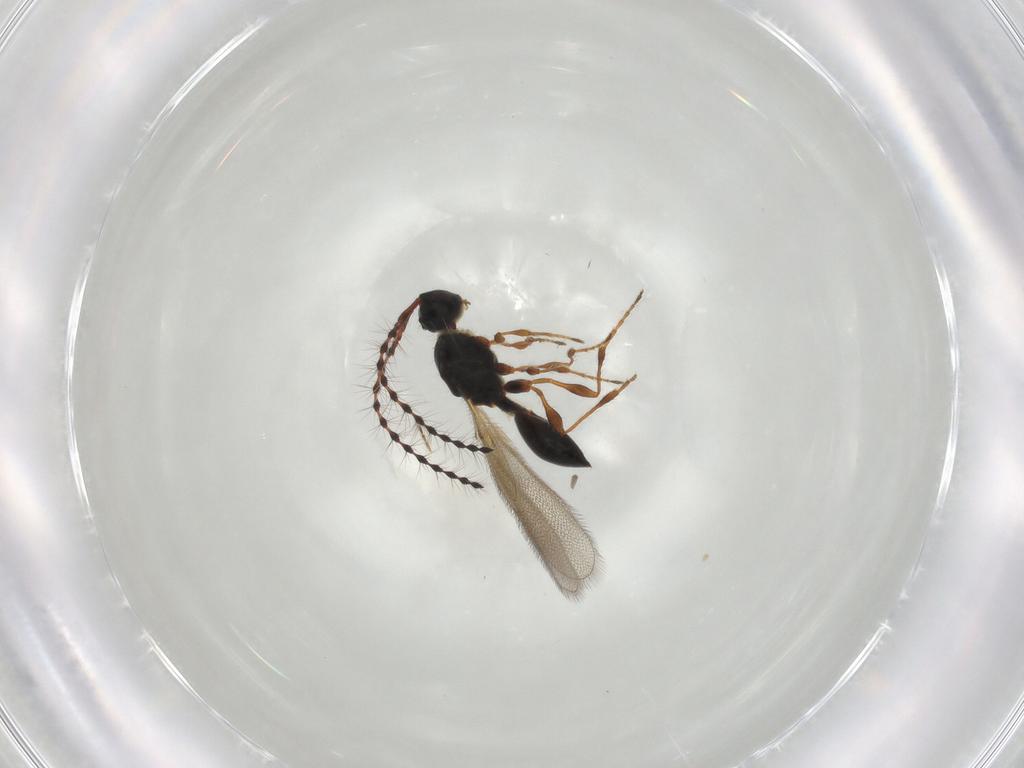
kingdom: Animalia
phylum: Arthropoda
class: Insecta
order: Hymenoptera
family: Diapriidae
